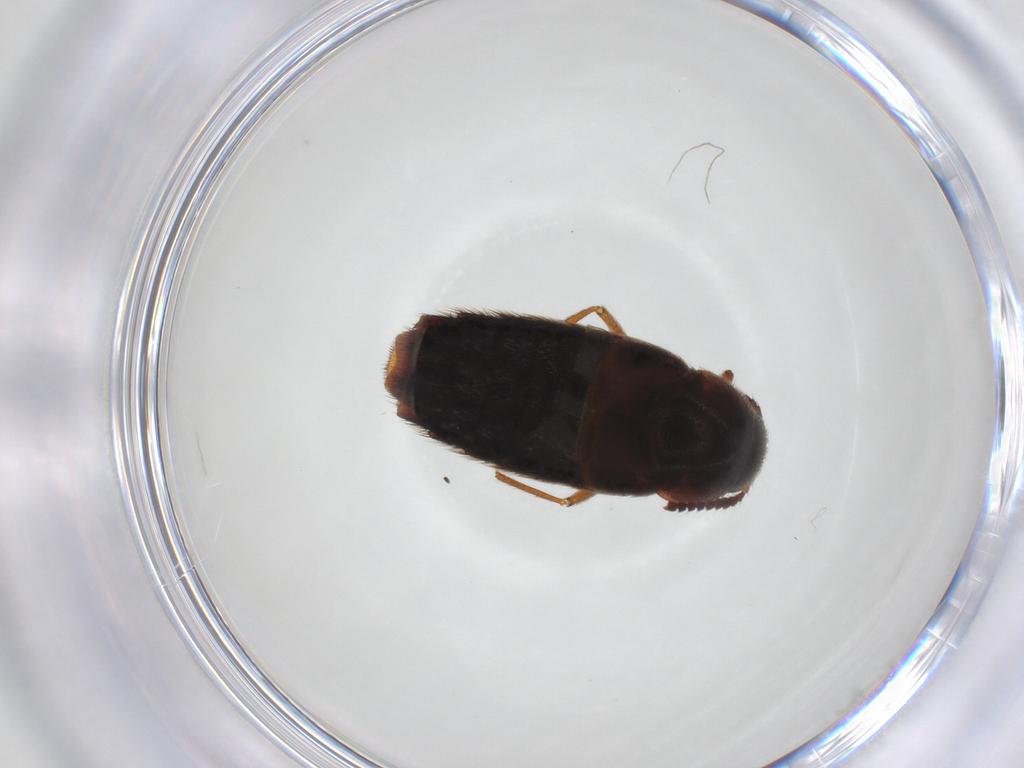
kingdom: Animalia
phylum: Arthropoda
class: Insecta
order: Coleoptera
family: Staphylinidae
